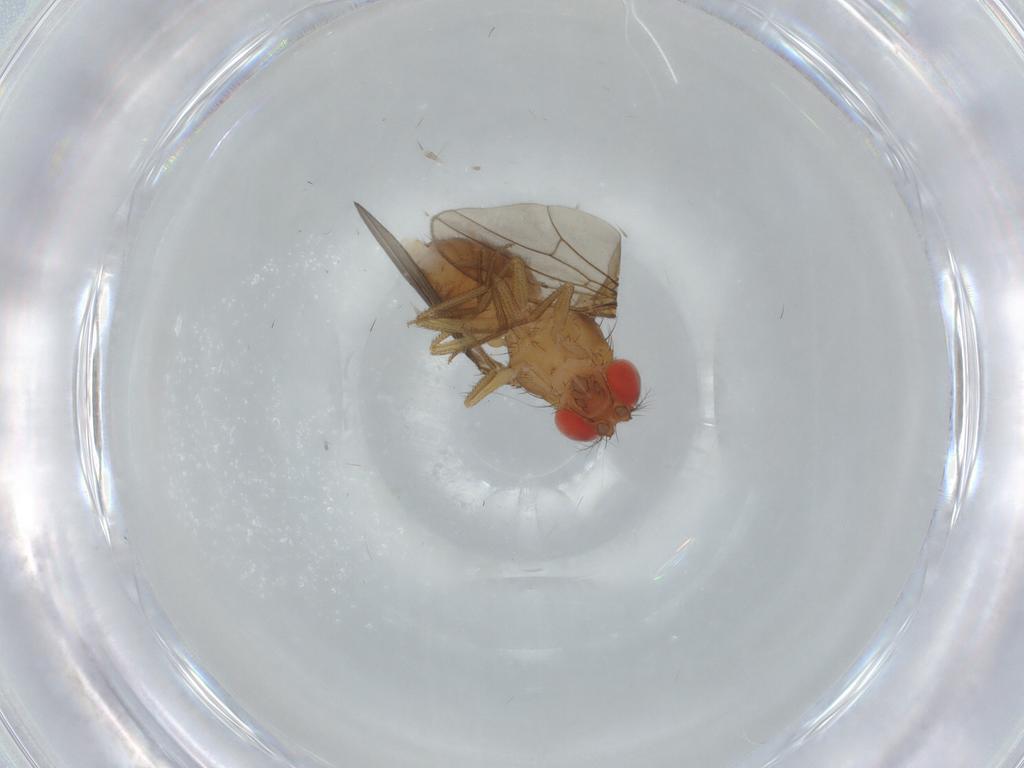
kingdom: Animalia
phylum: Arthropoda
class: Insecta
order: Diptera
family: Drosophilidae
